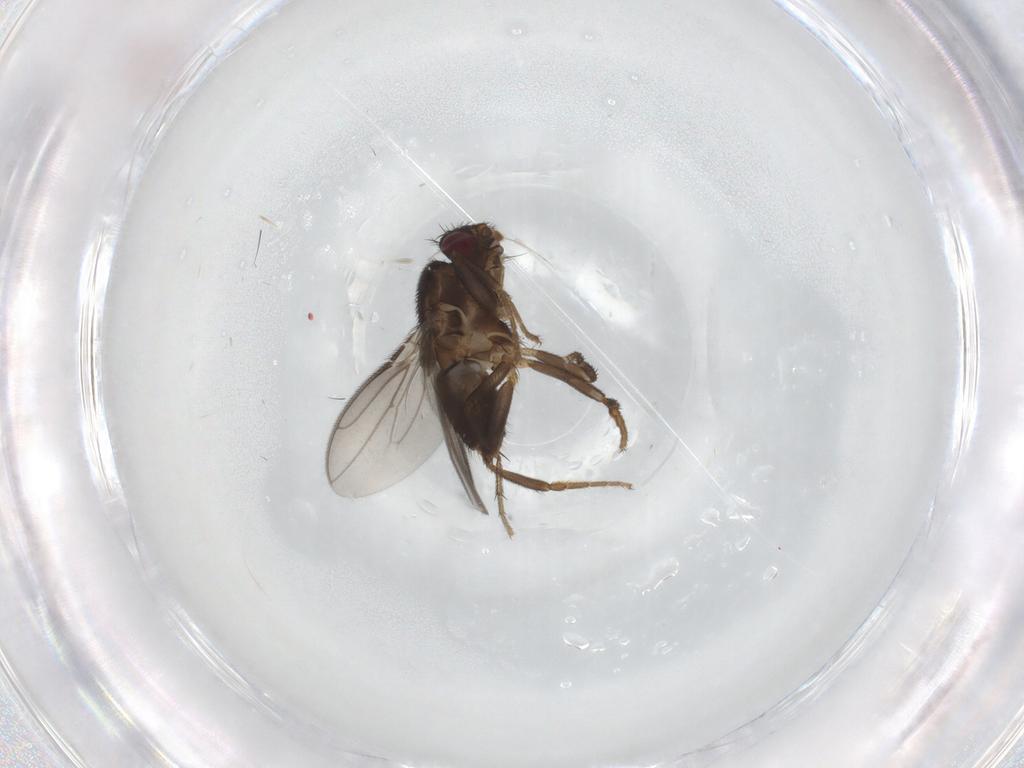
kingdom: Animalia
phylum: Arthropoda
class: Insecta
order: Diptera
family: Sphaeroceridae
